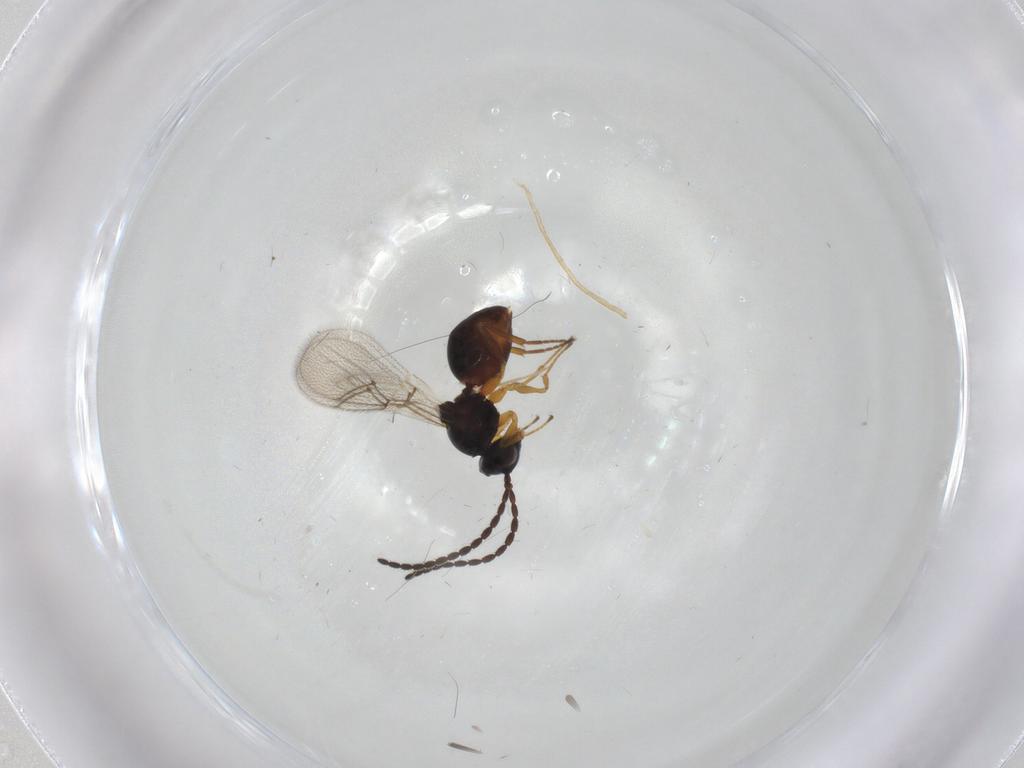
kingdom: Animalia
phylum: Arthropoda
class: Insecta
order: Hymenoptera
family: Figitidae
